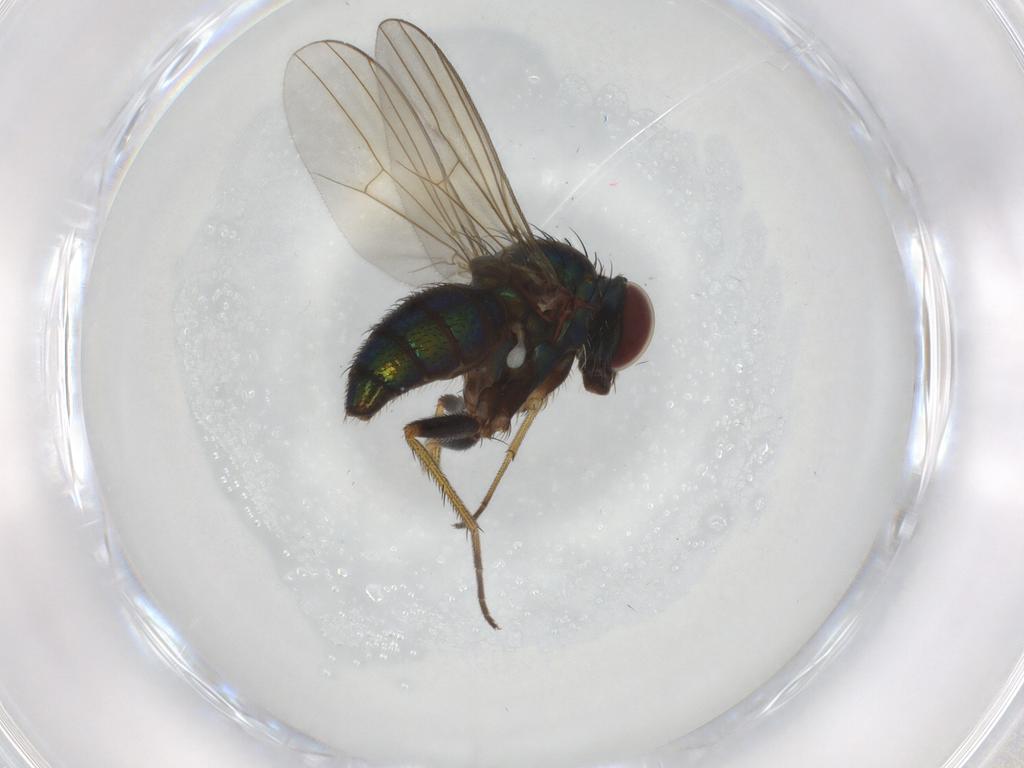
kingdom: Animalia
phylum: Arthropoda
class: Insecta
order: Diptera
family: Dolichopodidae
